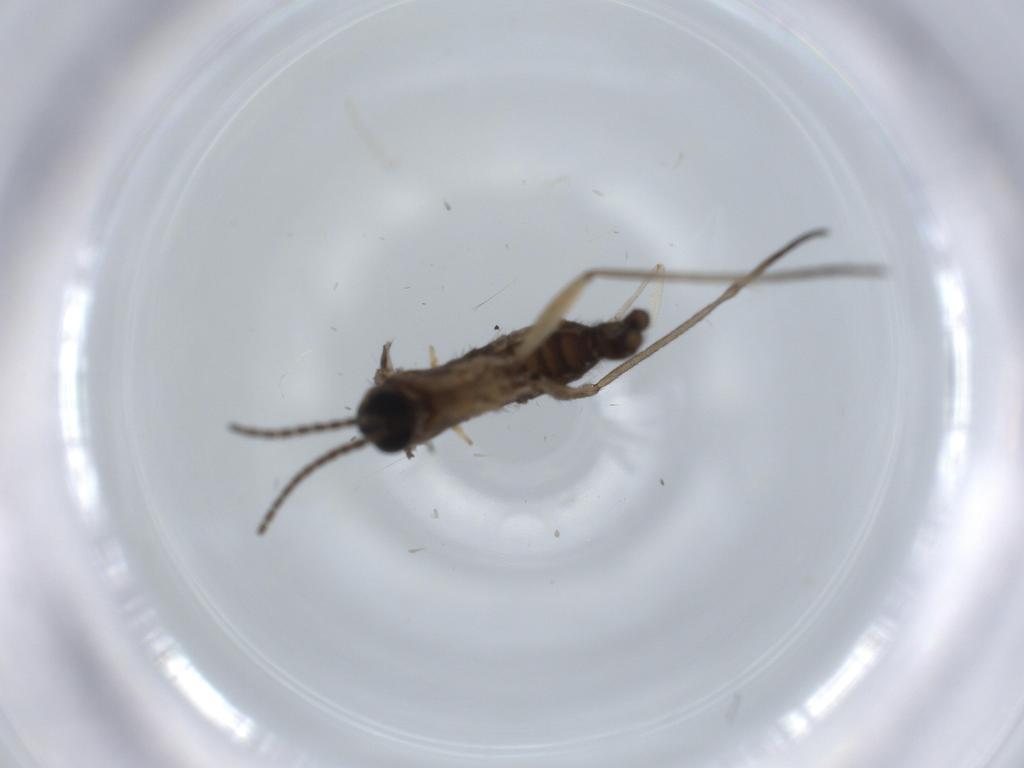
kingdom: Animalia
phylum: Arthropoda
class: Insecta
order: Diptera
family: Sciaridae
